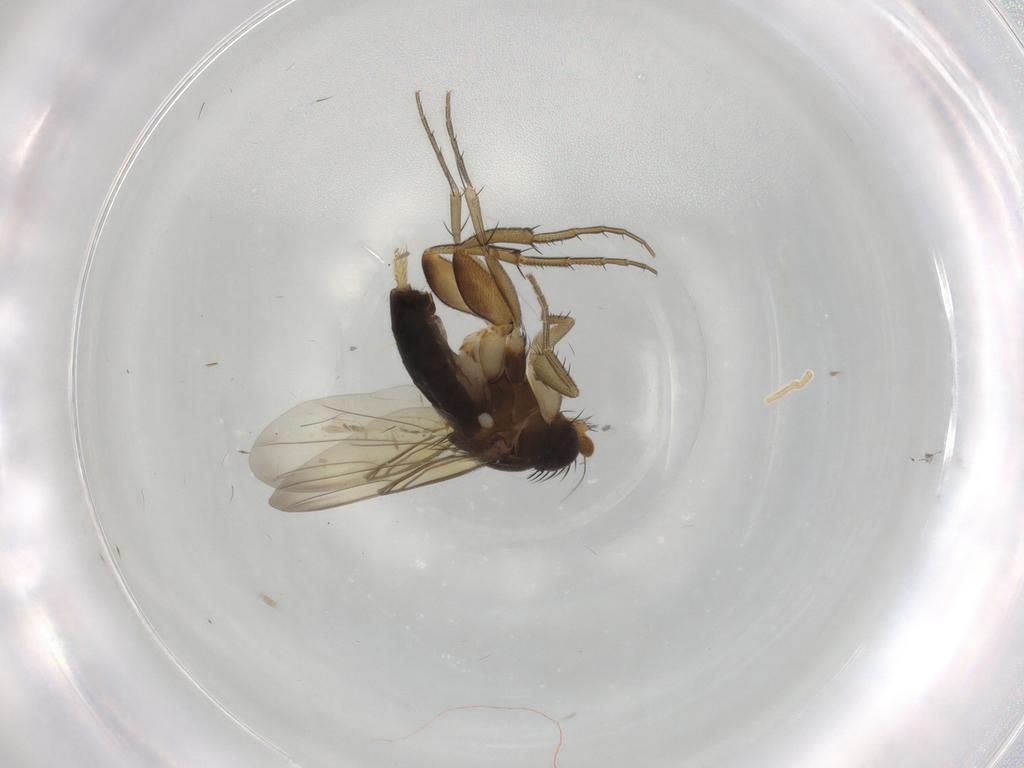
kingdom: Animalia
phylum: Arthropoda
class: Insecta
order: Diptera
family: Phoridae
